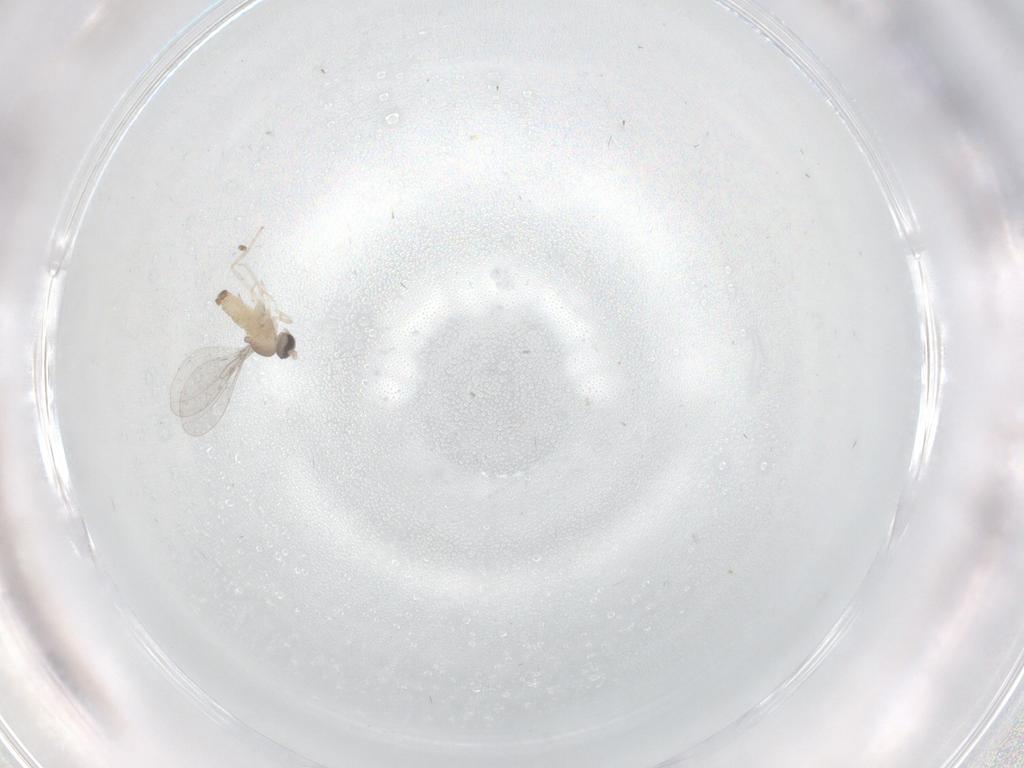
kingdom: Animalia
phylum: Arthropoda
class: Insecta
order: Diptera
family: Cecidomyiidae
